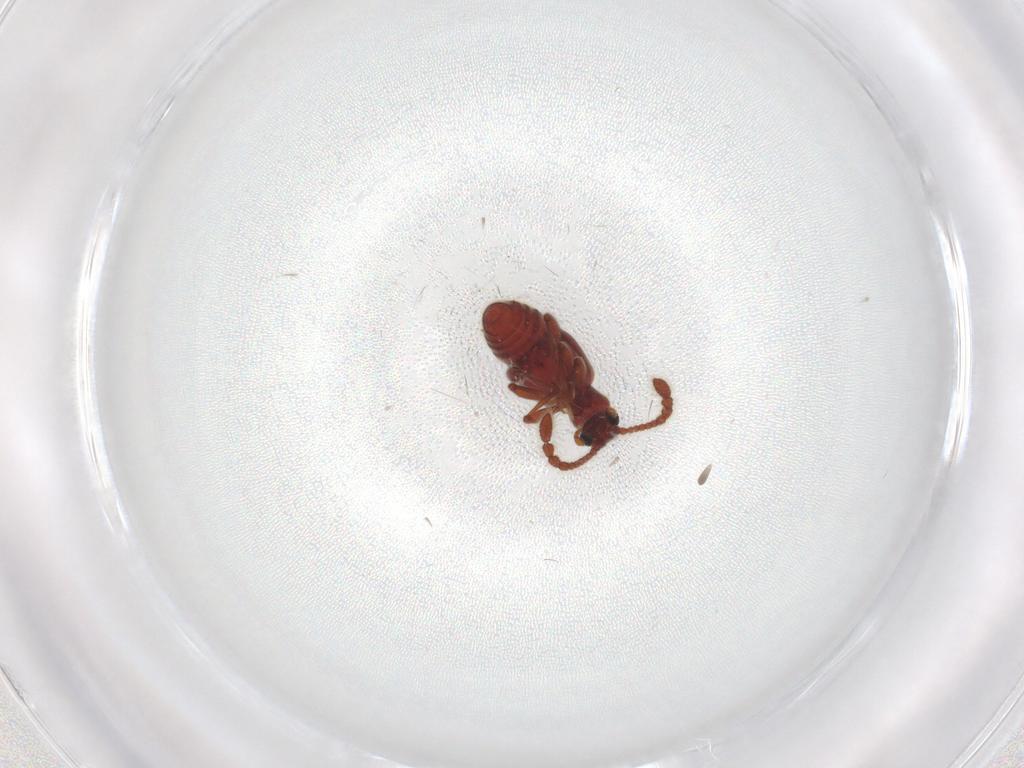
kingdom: Animalia
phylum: Arthropoda
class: Insecta
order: Coleoptera
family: Staphylinidae
